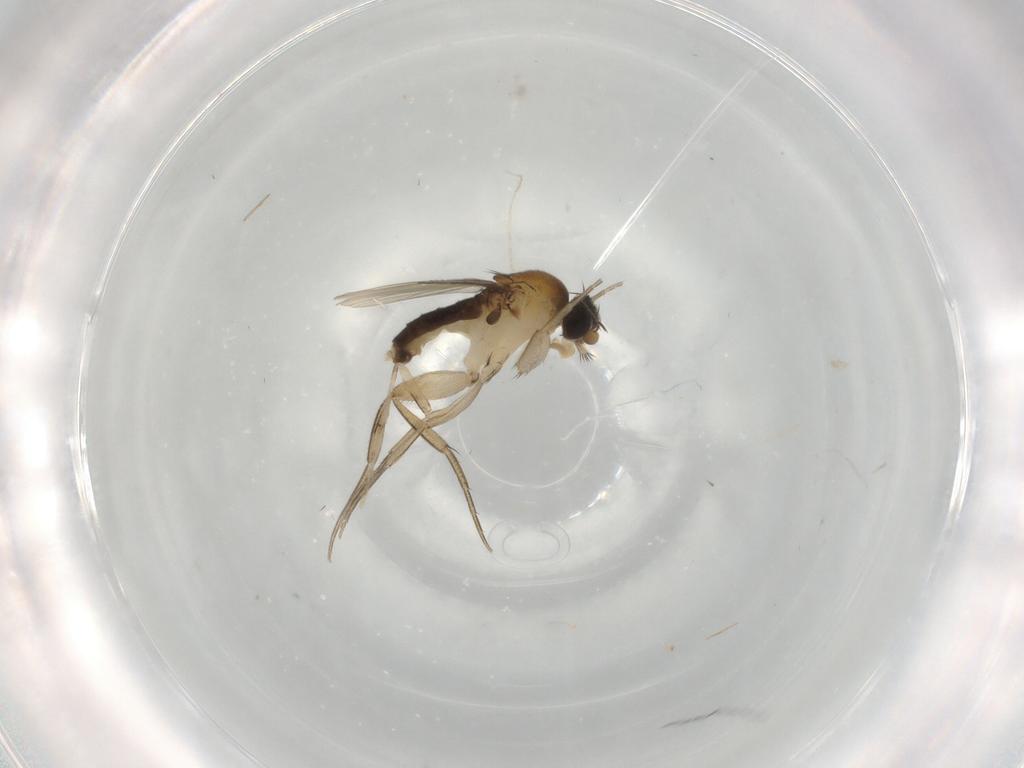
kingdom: Animalia
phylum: Arthropoda
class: Insecta
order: Diptera
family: Phoridae
